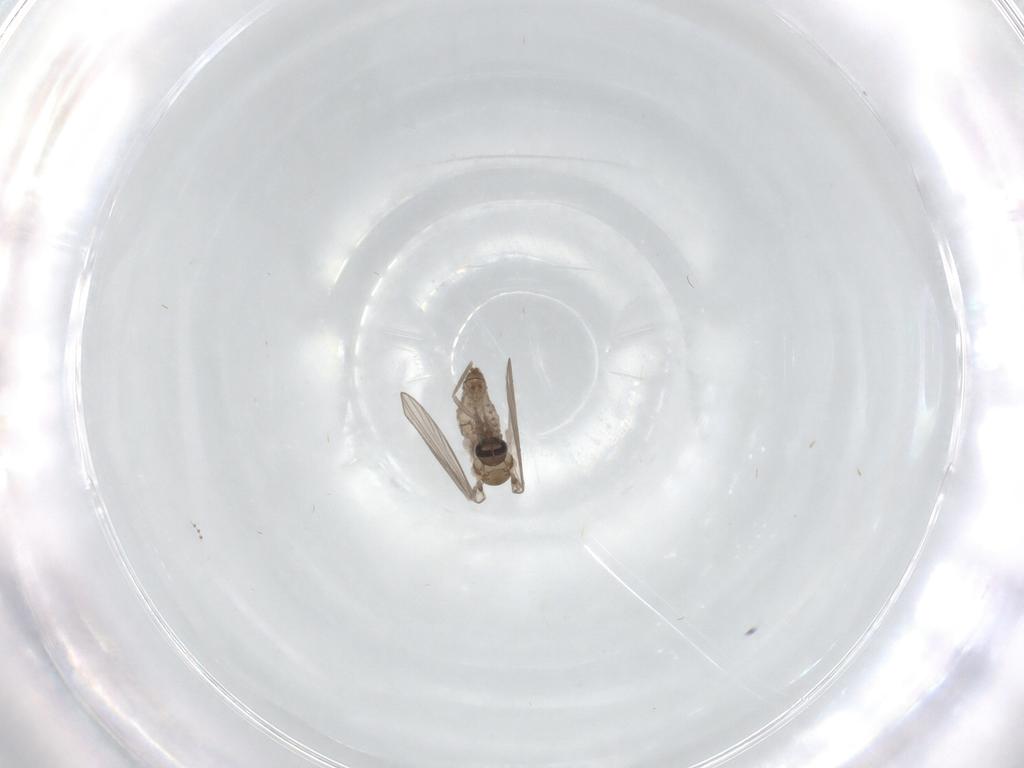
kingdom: Animalia
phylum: Arthropoda
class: Insecta
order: Diptera
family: Psychodidae
